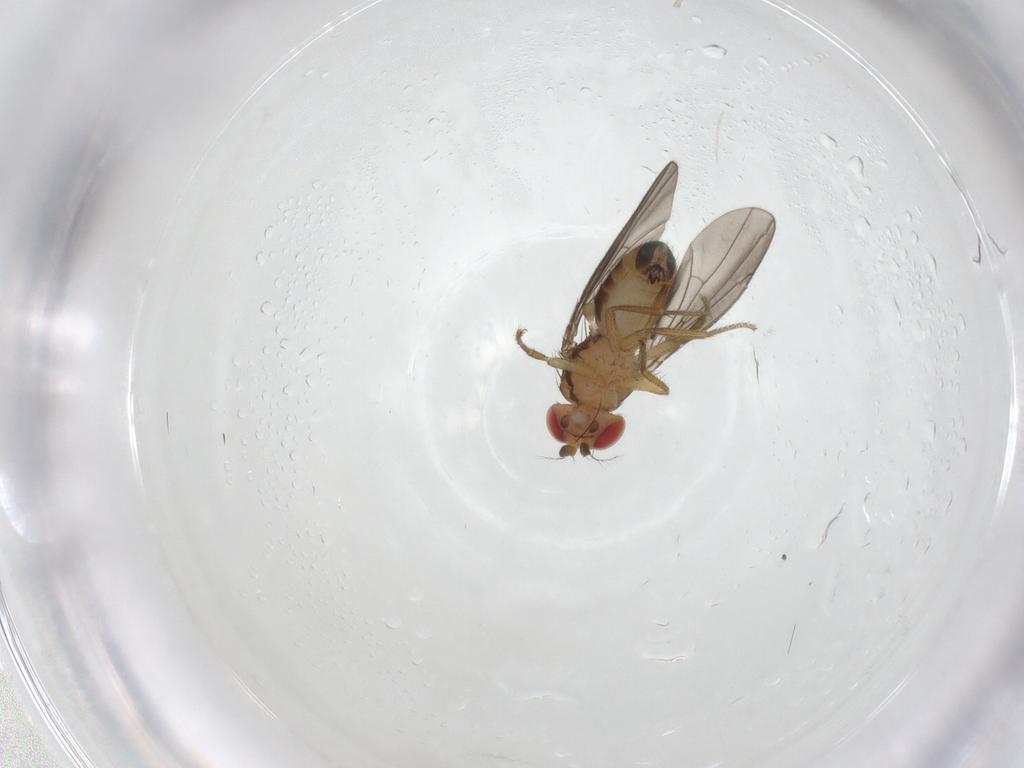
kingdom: Animalia
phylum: Arthropoda
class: Insecta
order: Diptera
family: Drosophilidae
